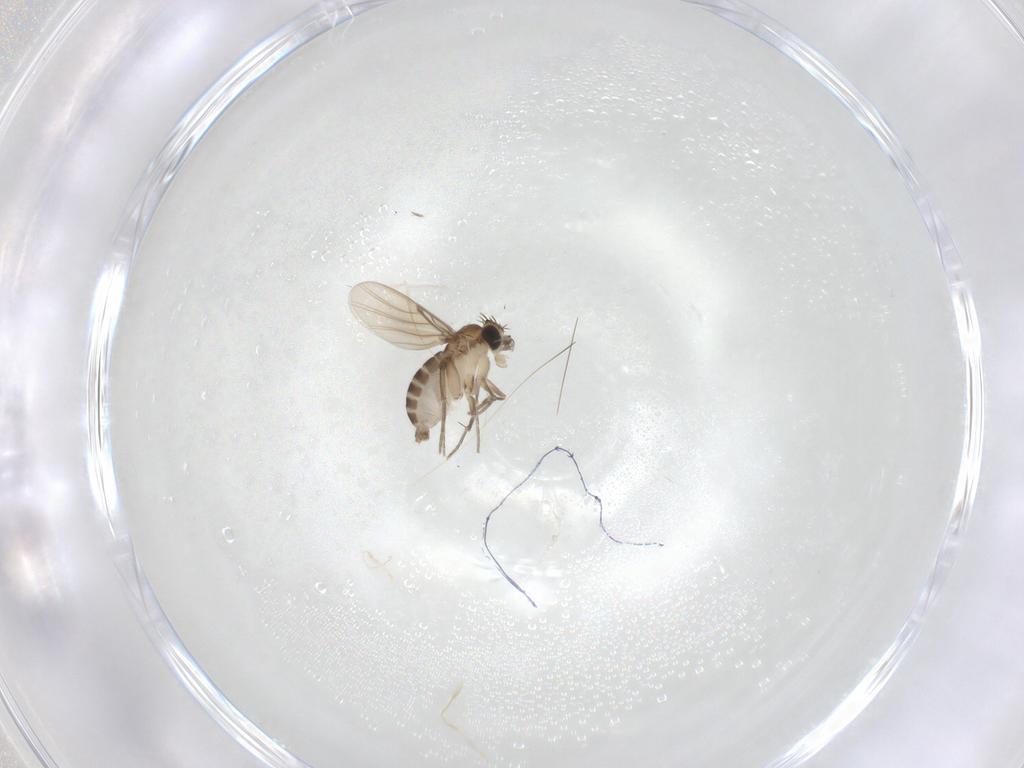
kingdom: Animalia
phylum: Arthropoda
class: Insecta
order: Diptera
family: Phoridae
